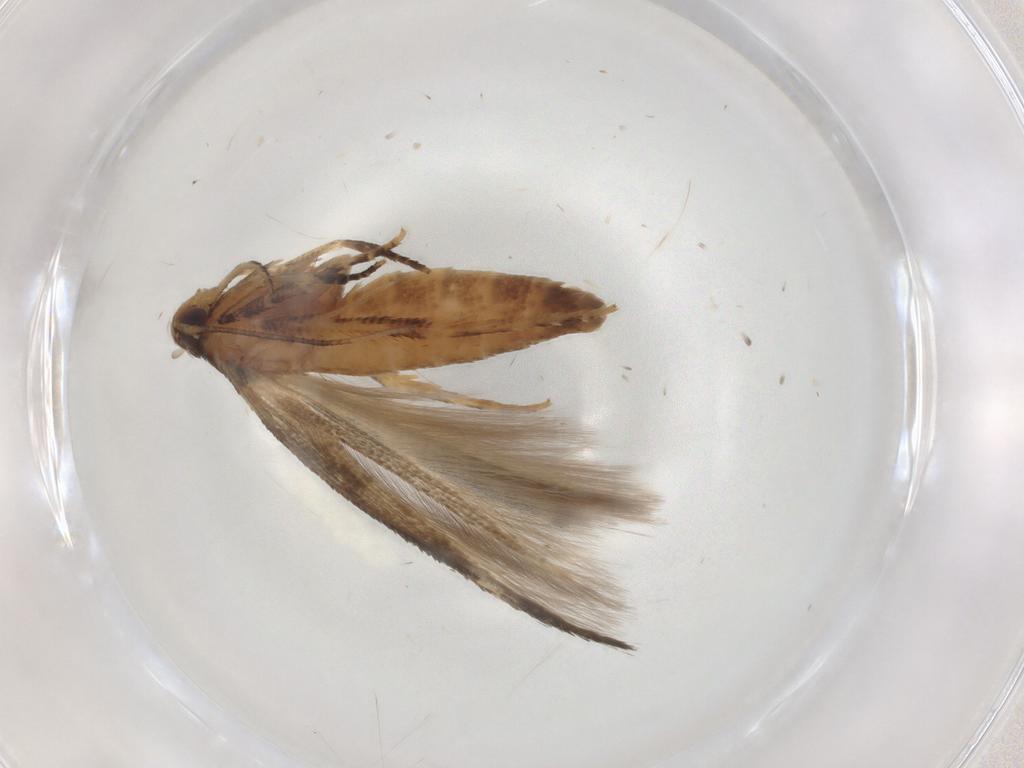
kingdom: Animalia
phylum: Arthropoda
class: Insecta
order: Lepidoptera
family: Cosmopterigidae
